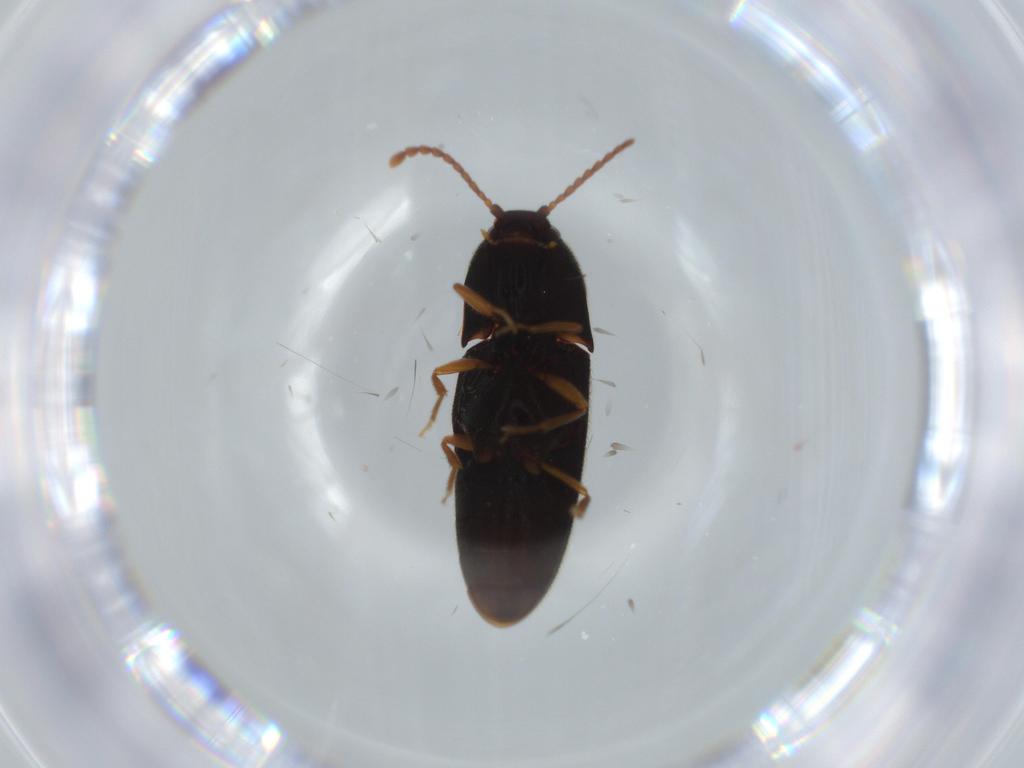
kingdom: Animalia
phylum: Arthropoda
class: Insecta
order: Coleoptera
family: Elateridae
